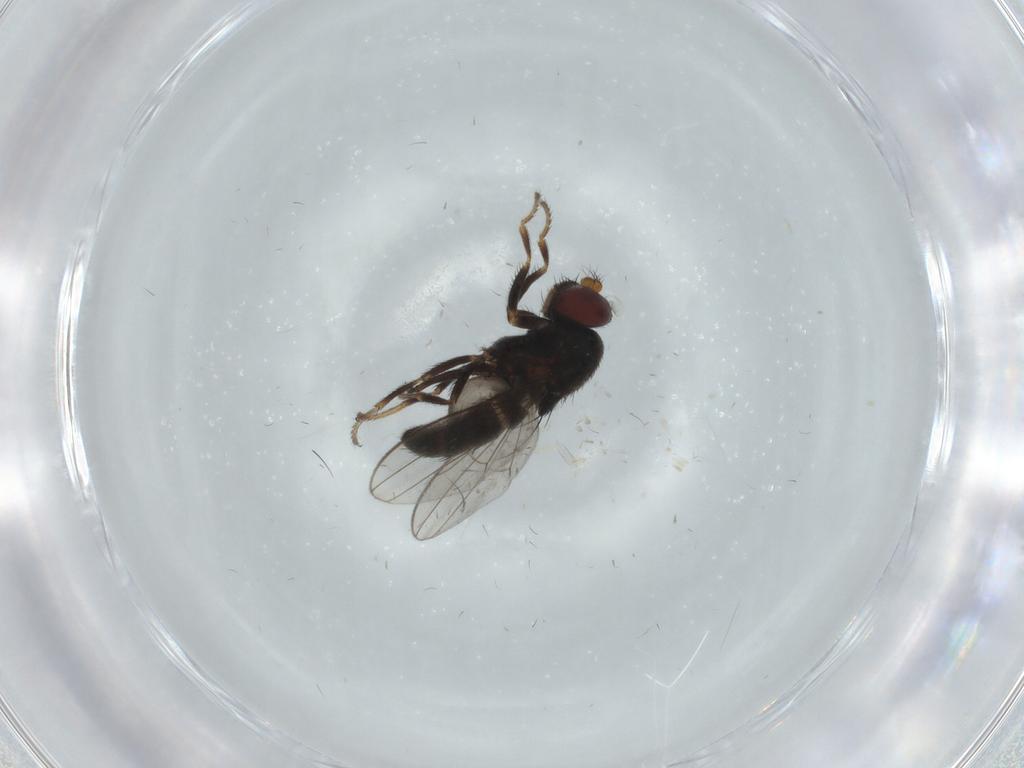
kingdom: Animalia
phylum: Arthropoda
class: Insecta
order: Diptera
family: Ephydridae
